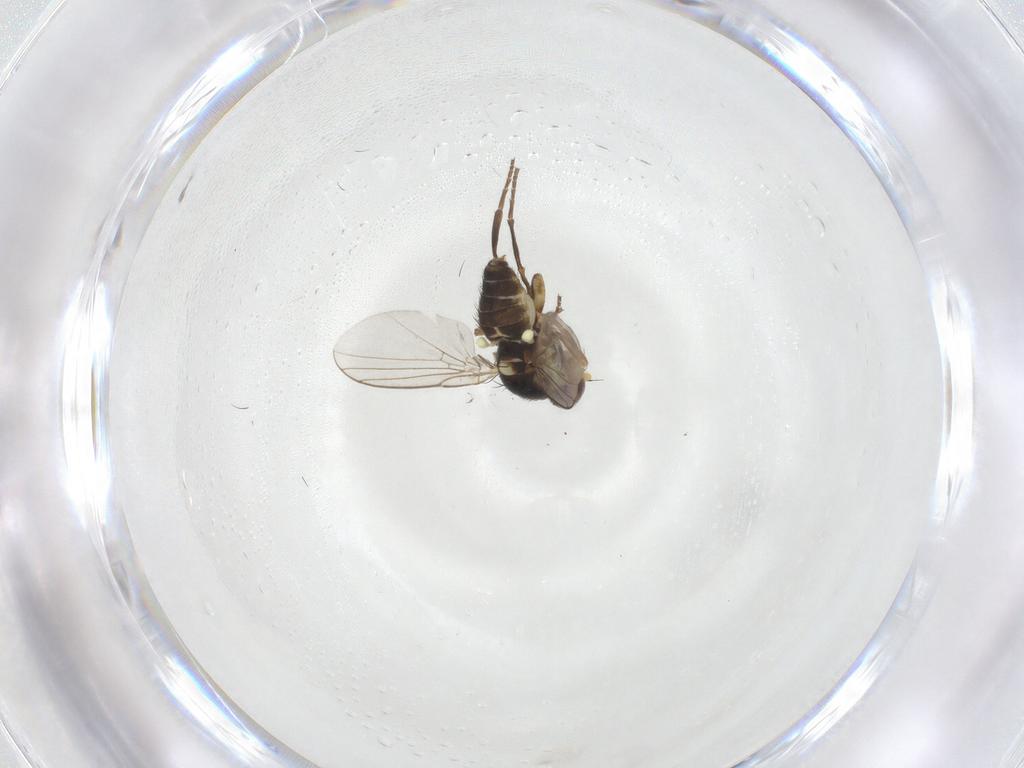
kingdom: Animalia
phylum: Arthropoda
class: Insecta
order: Diptera
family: Agromyzidae
